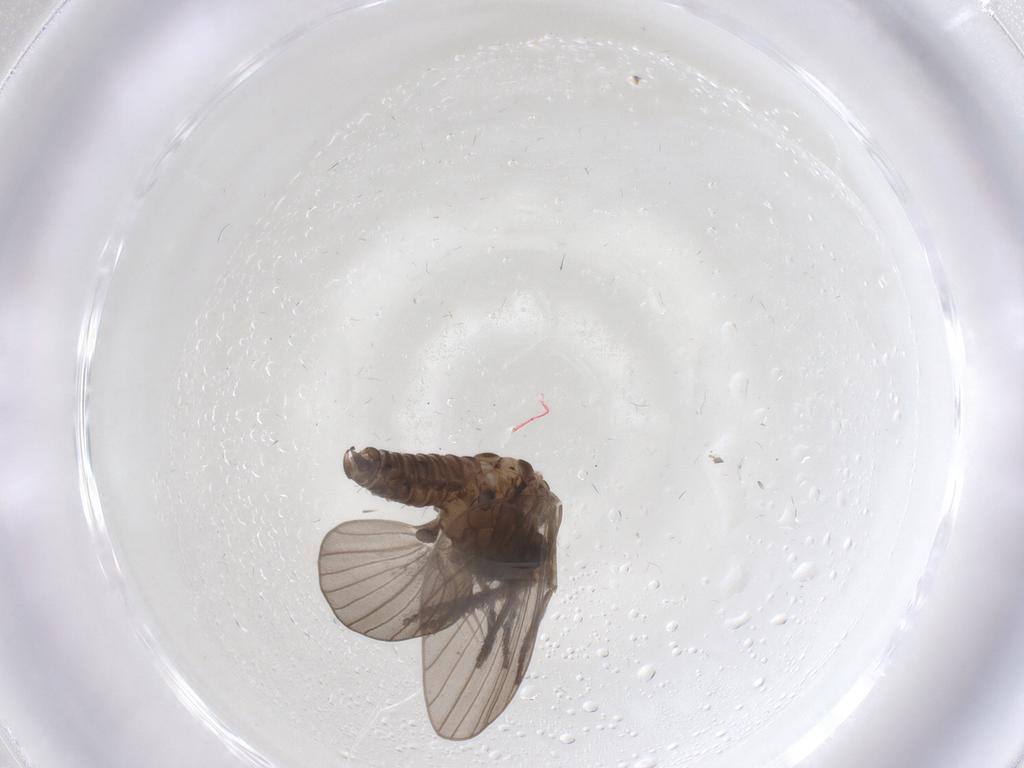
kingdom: Animalia
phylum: Arthropoda
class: Insecta
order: Diptera
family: Psychodidae
